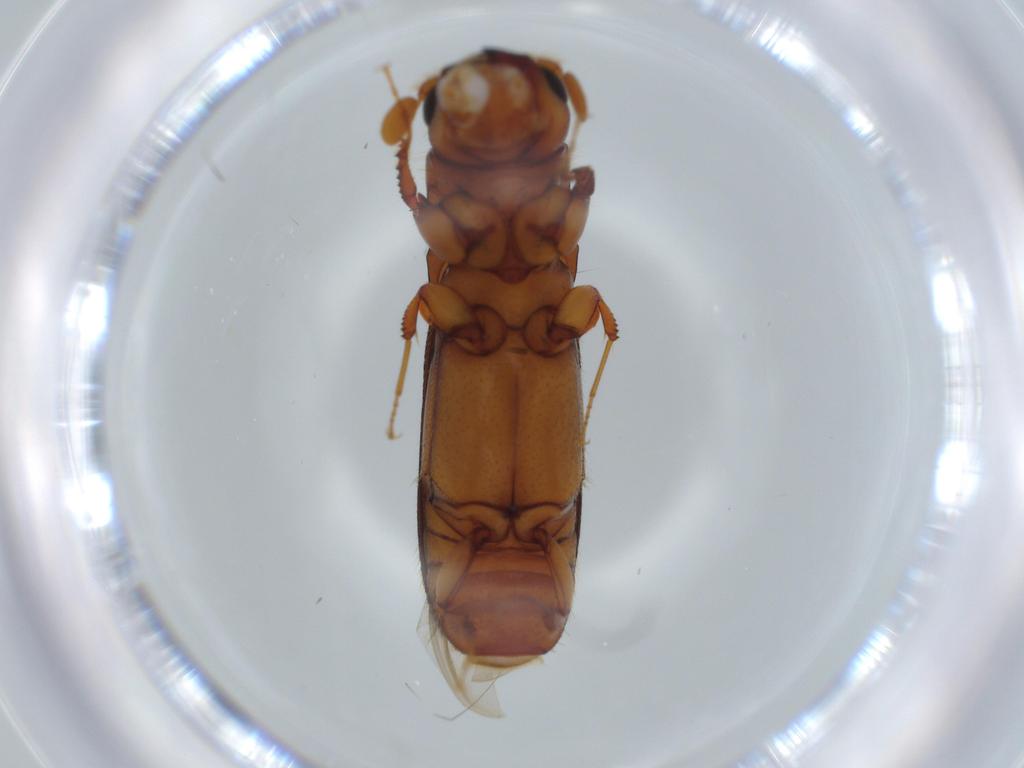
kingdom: Animalia
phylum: Arthropoda
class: Insecta
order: Coleoptera
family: Curculionidae
